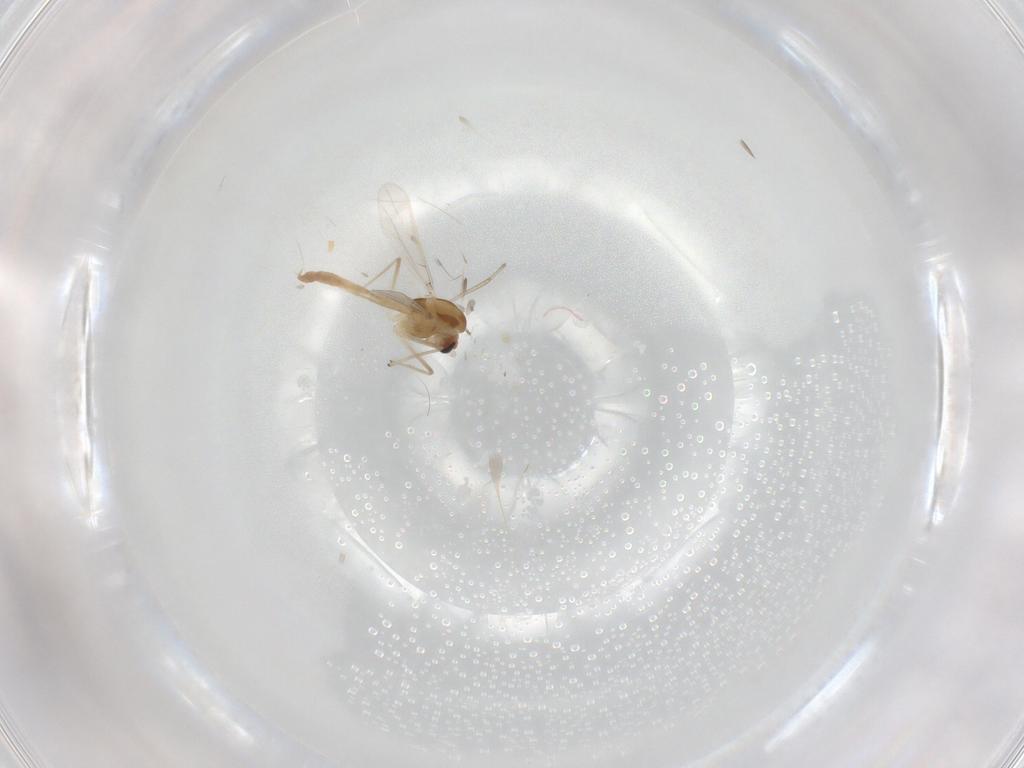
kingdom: Animalia
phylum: Arthropoda
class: Insecta
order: Diptera
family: Chironomidae
